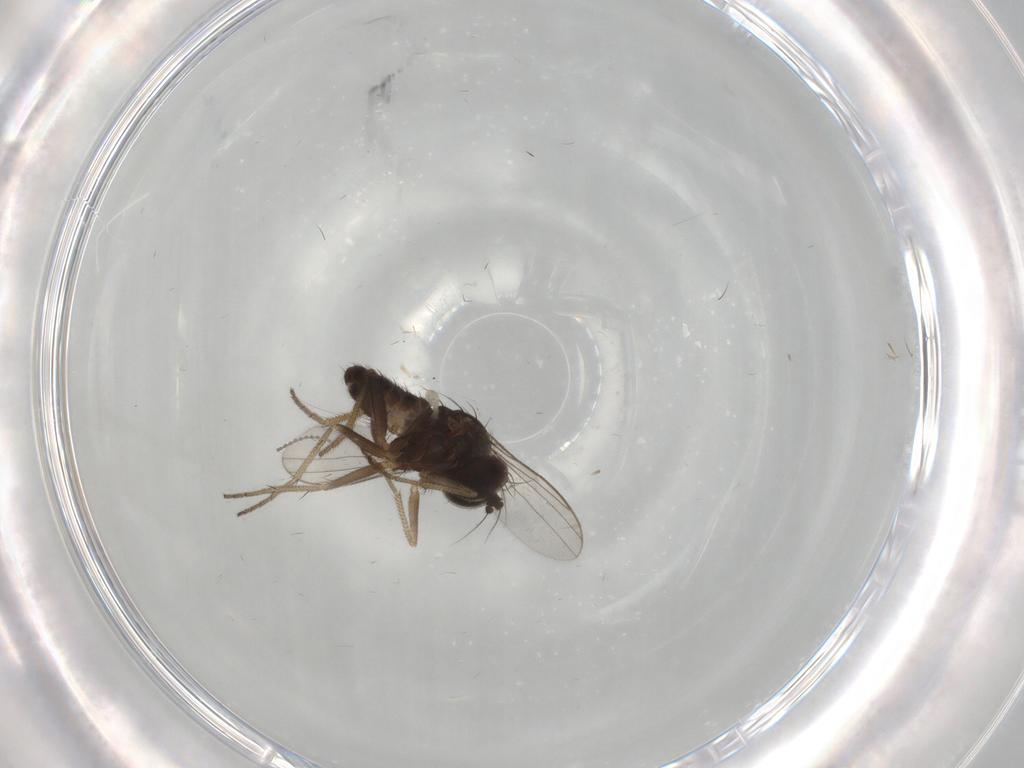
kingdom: Animalia
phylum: Arthropoda
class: Insecta
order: Diptera
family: Dolichopodidae
